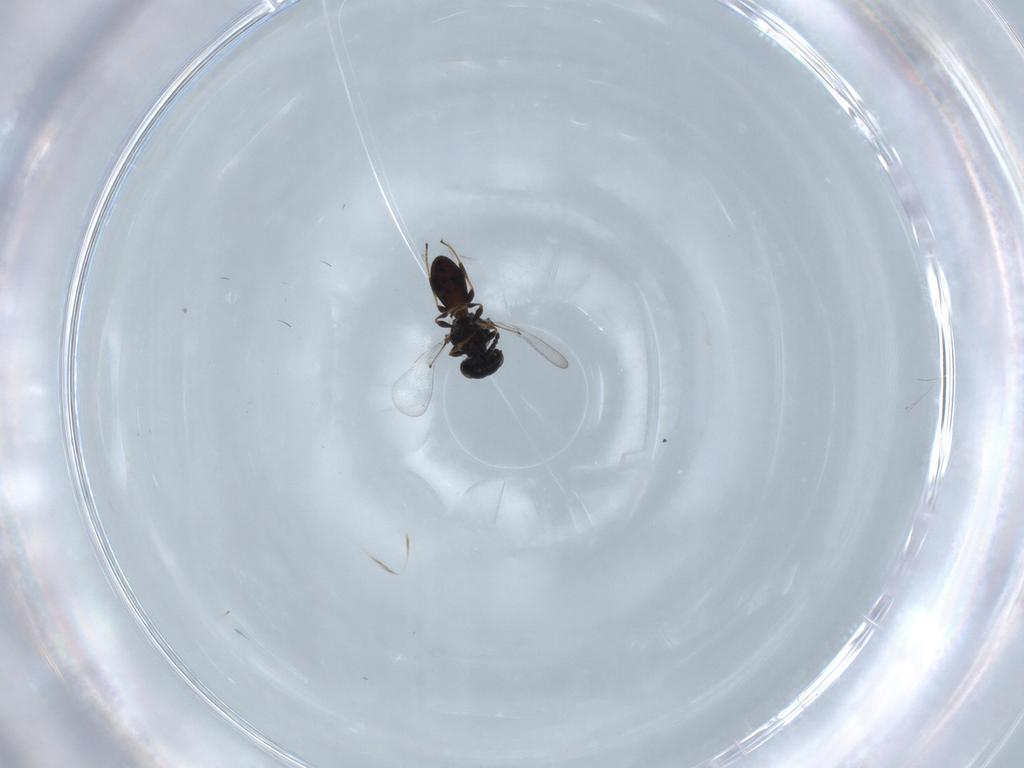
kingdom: Animalia
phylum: Arthropoda
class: Insecta
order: Hymenoptera
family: Platygastridae
